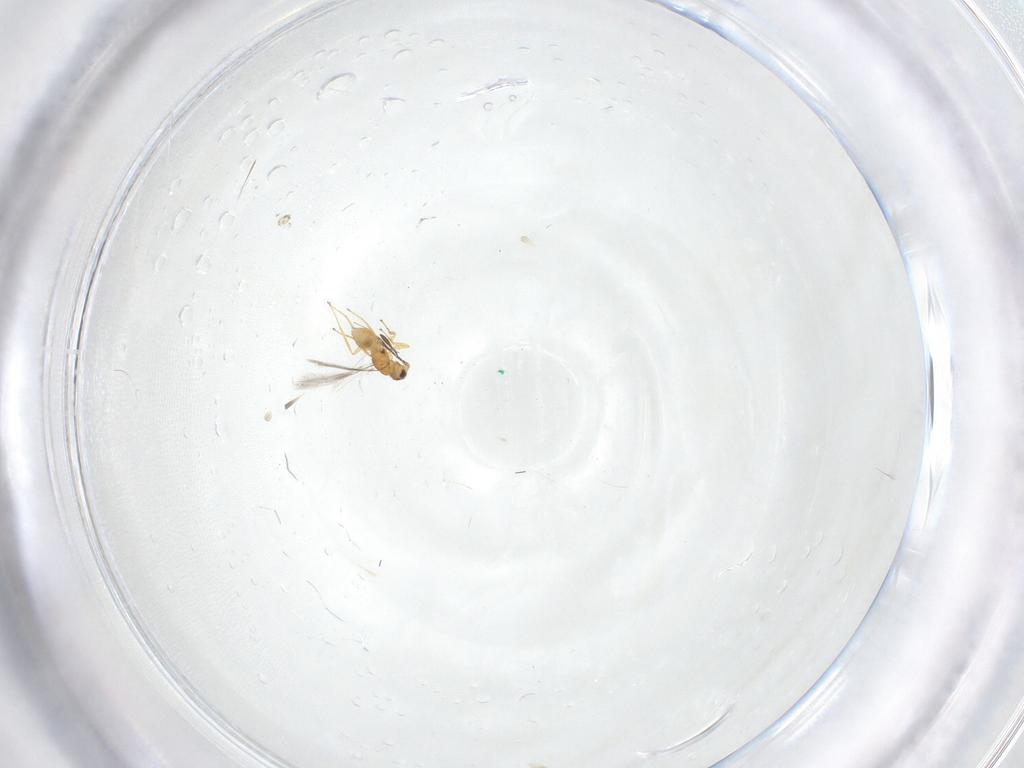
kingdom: Animalia
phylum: Arthropoda
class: Insecta
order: Hymenoptera
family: Mymaridae
